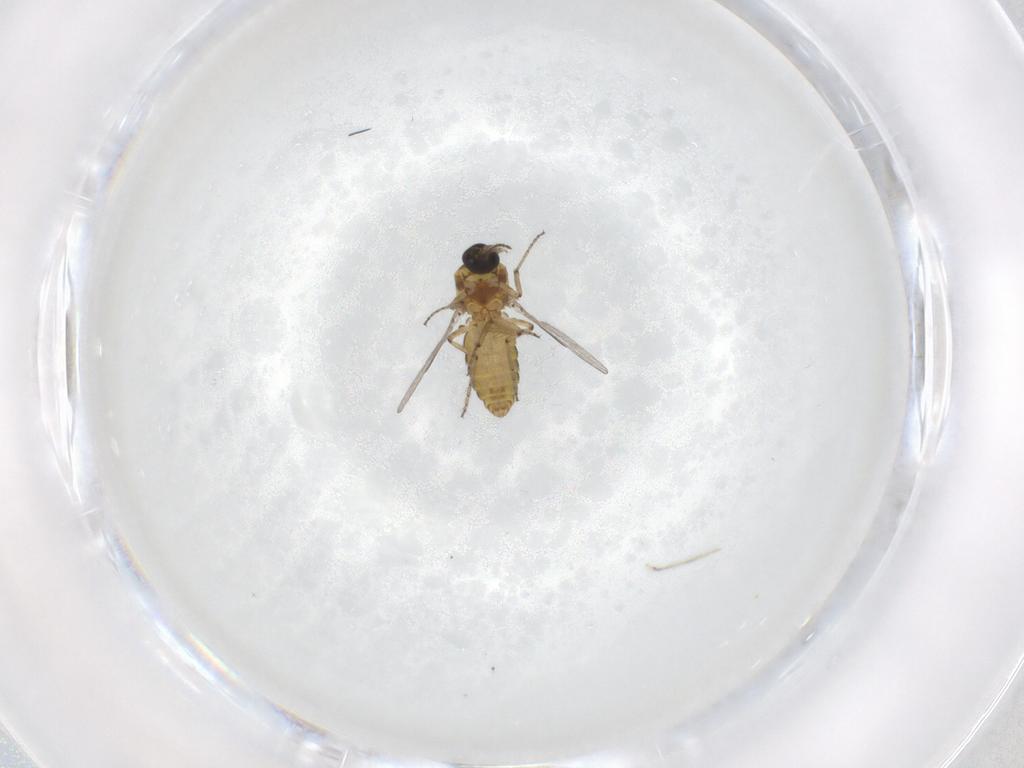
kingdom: Animalia
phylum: Arthropoda
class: Insecta
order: Diptera
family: Ceratopogonidae
